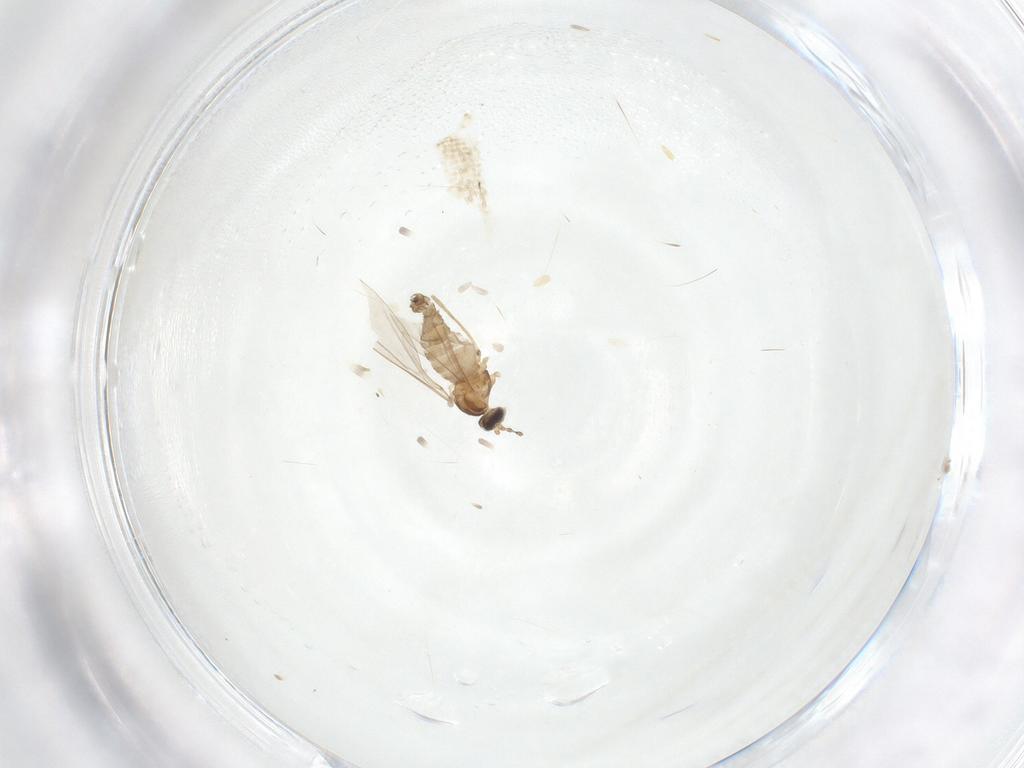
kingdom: Animalia
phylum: Arthropoda
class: Insecta
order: Diptera
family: Cecidomyiidae
